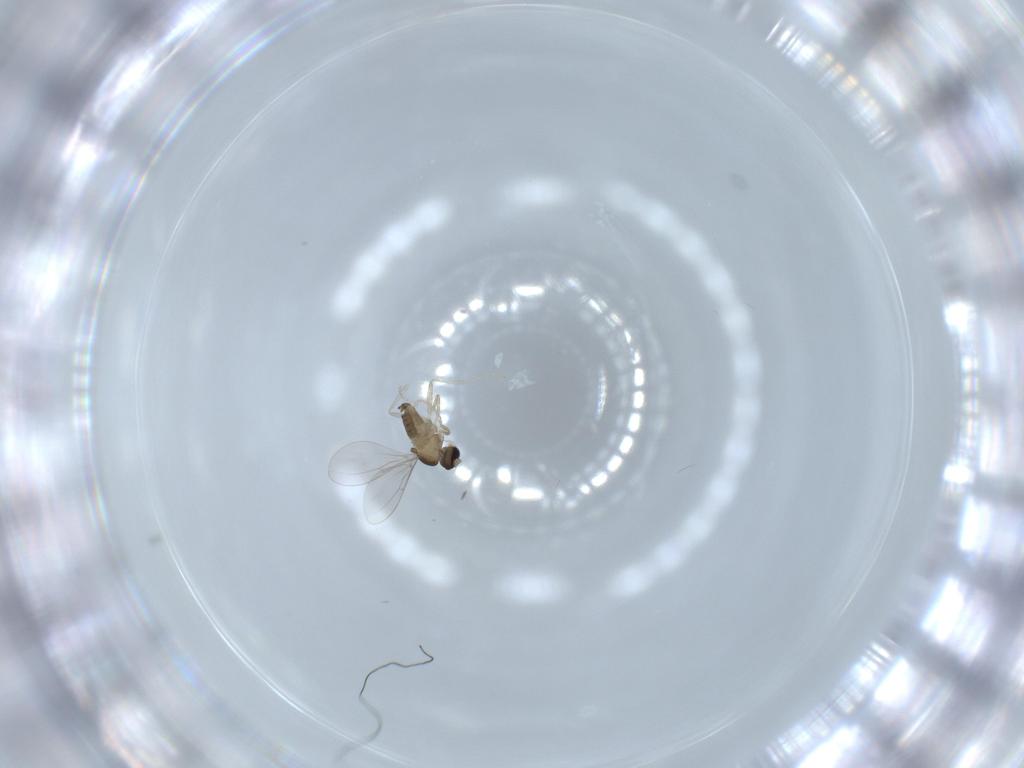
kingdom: Animalia
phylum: Arthropoda
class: Insecta
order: Diptera
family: Cecidomyiidae
